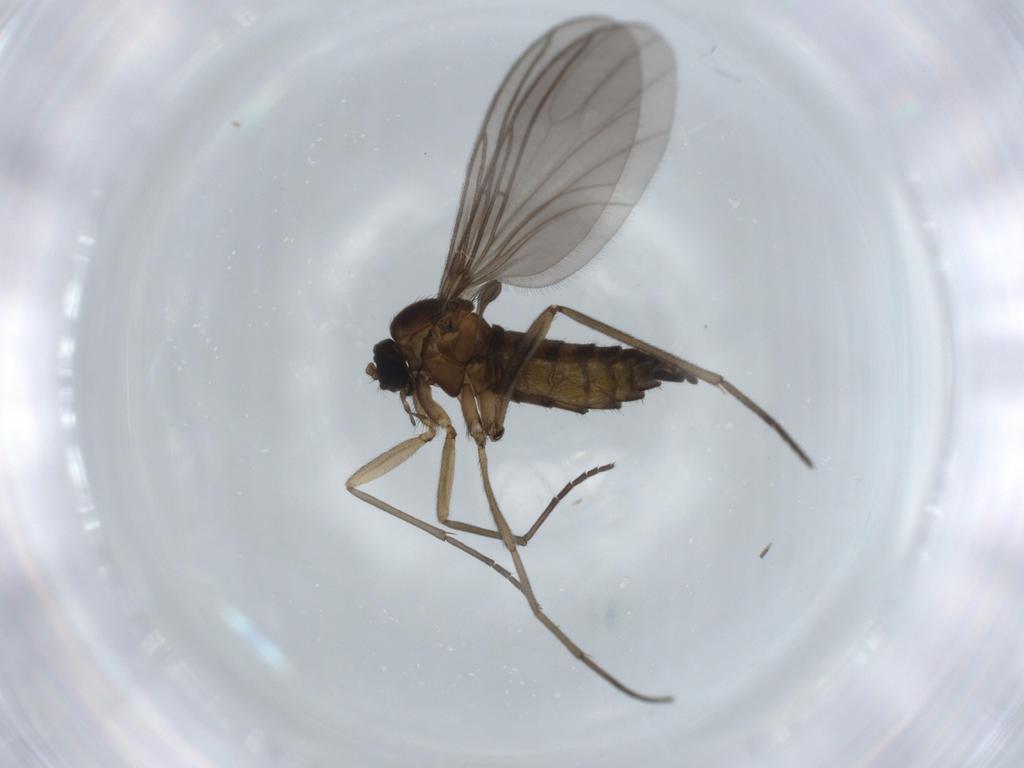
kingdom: Animalia
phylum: Arthropoda
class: Insecta
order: Diptera
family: Sciaridae
